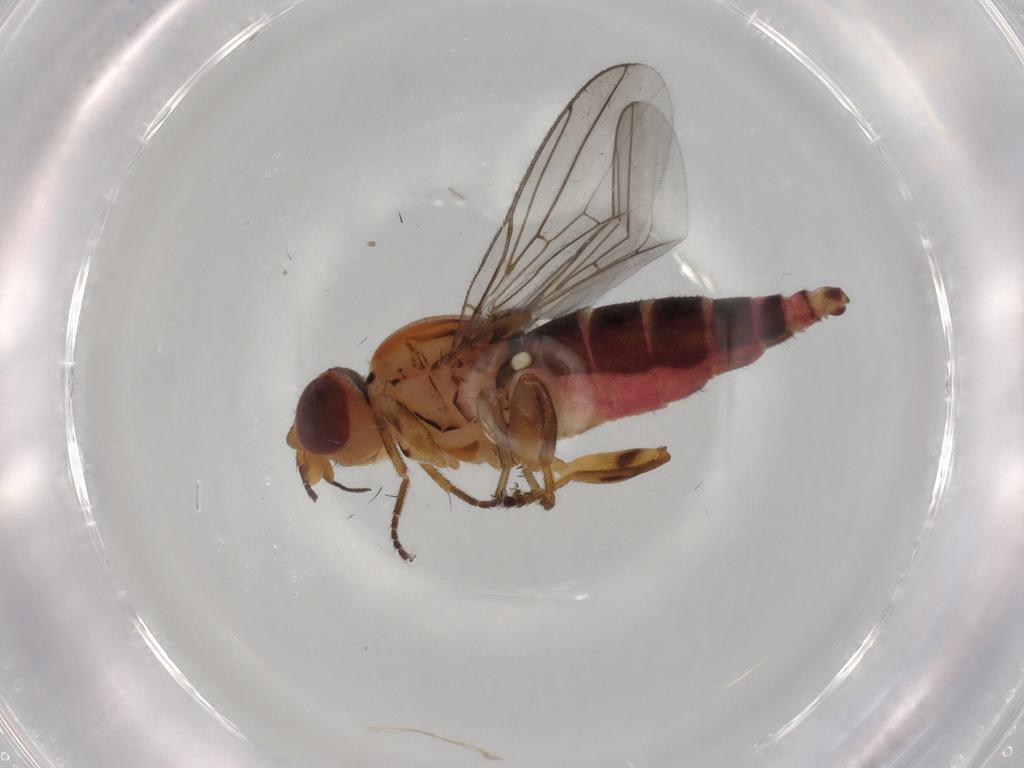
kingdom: Animalia
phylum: Arthropoda
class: Insecta
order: Diptera
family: Chloropidae
